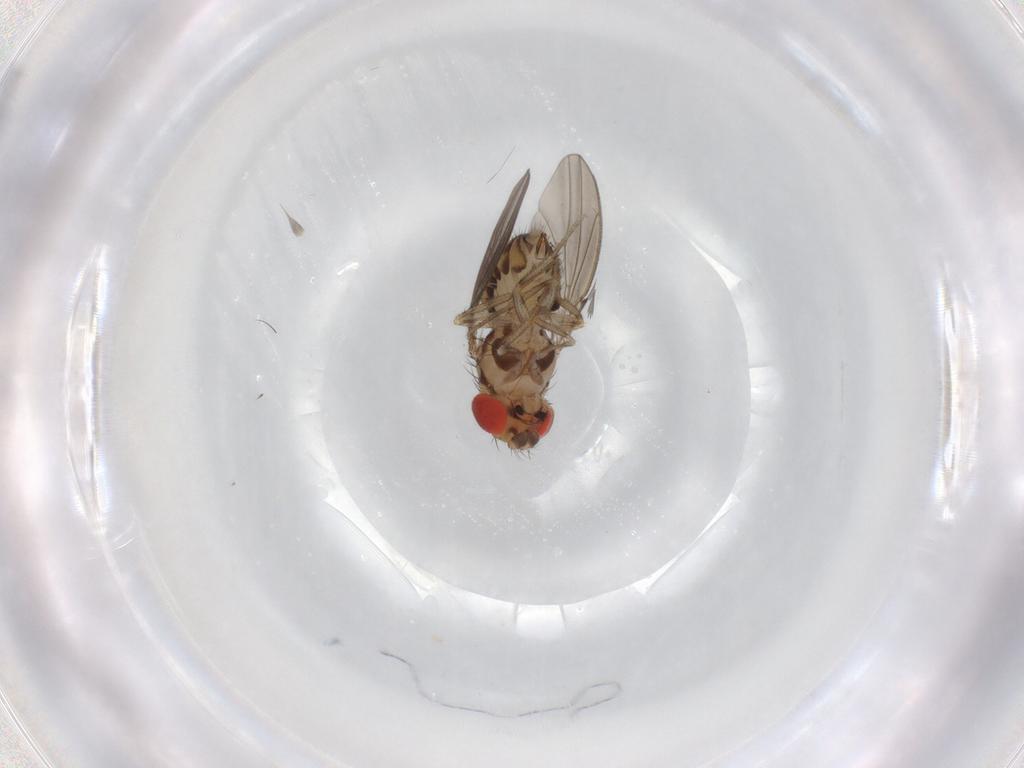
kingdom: Animalia
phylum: Arthropoda
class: Insecta
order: Diptera
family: Drosophilidae
